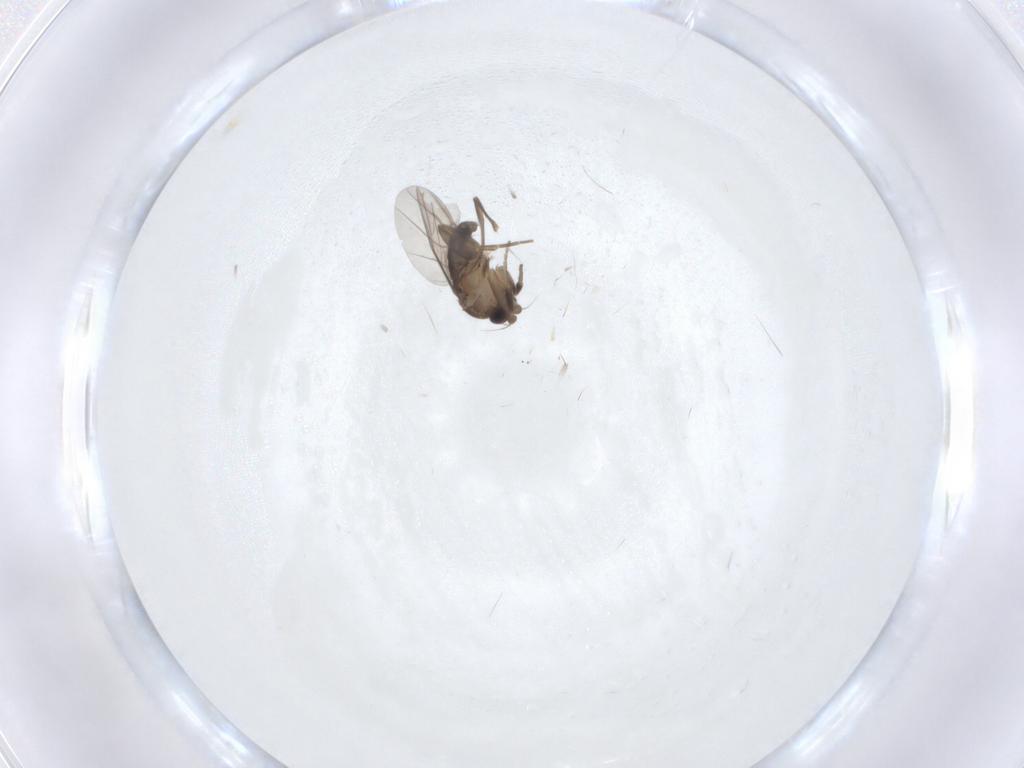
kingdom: Animalia
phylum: Arthropoda
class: Insecta
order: Diptera
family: Phoridae
